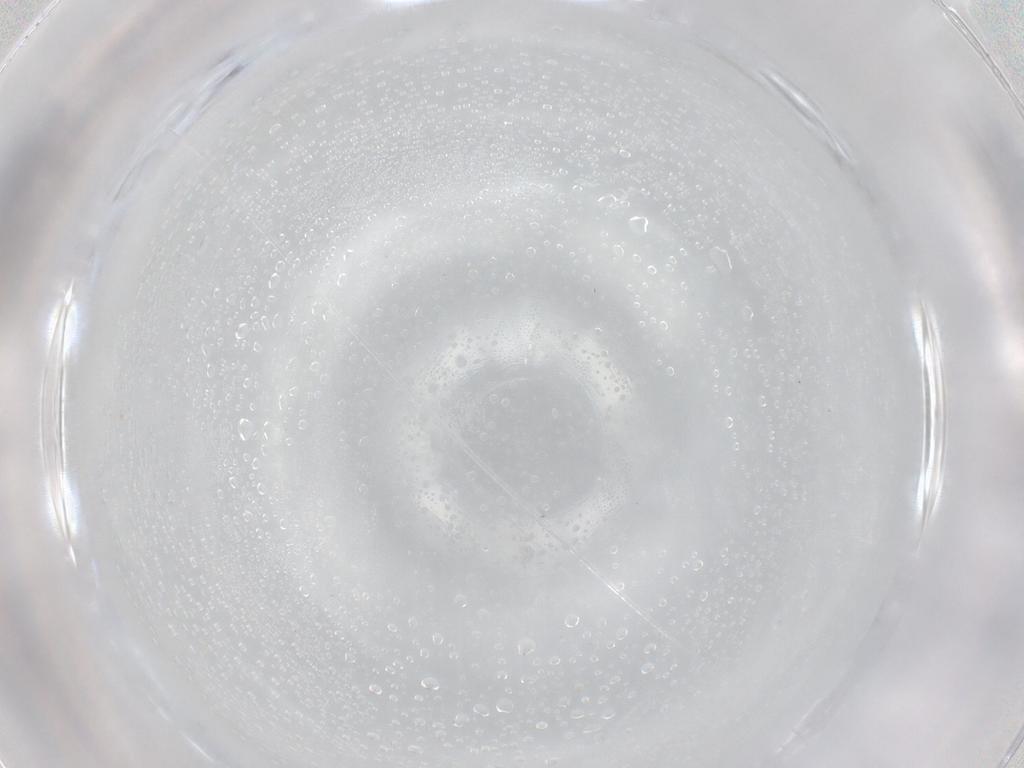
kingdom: Animalia
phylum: Arthropoda
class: Insecta
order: Diptera
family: Cecidomyiidae
